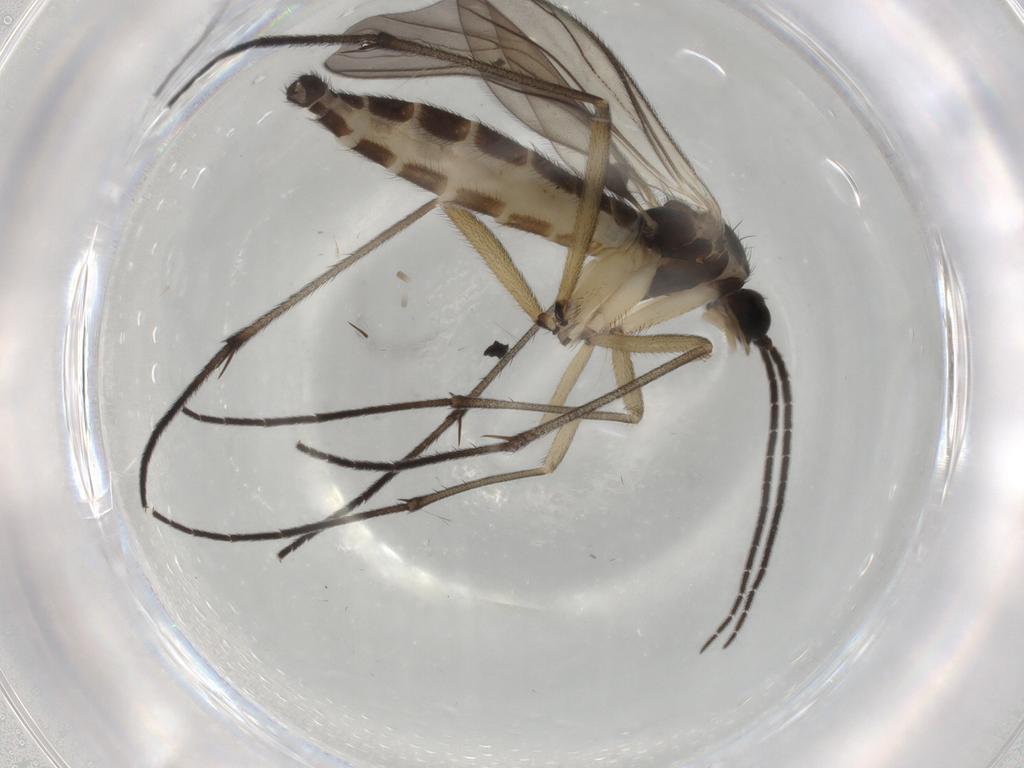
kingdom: Animalia
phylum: Arthropoda
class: Insecta
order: Diptera
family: Sciaridae
